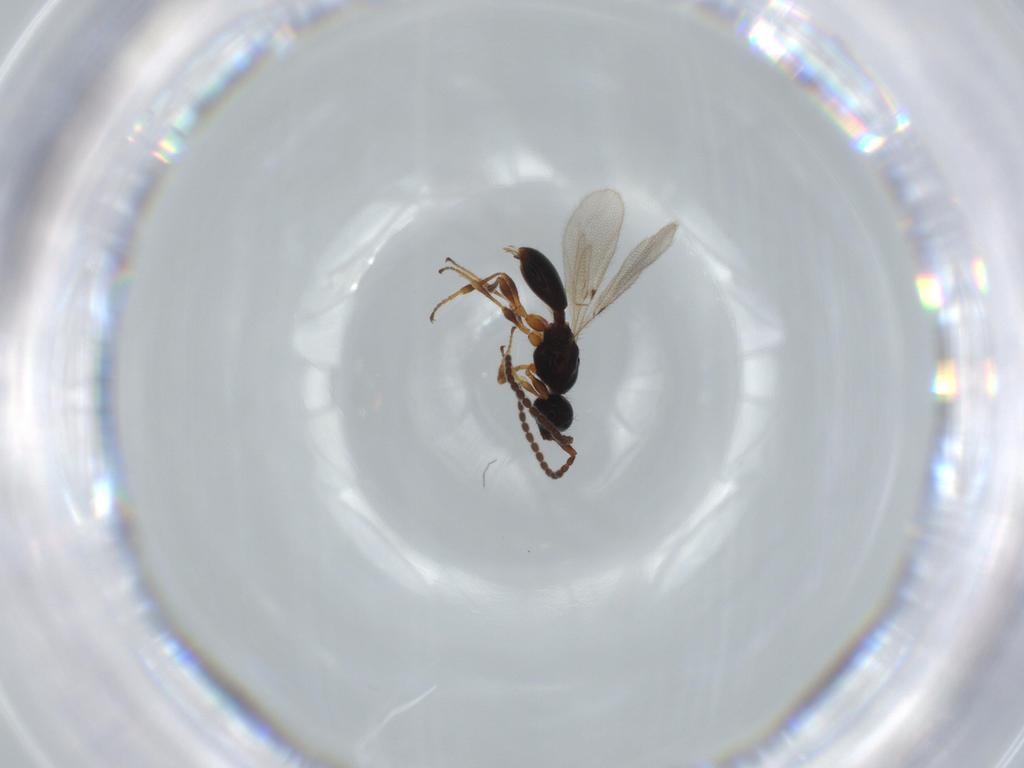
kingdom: Animalia
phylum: Arthropoda
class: Insecta
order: Hymenoptera
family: Diapriidae
